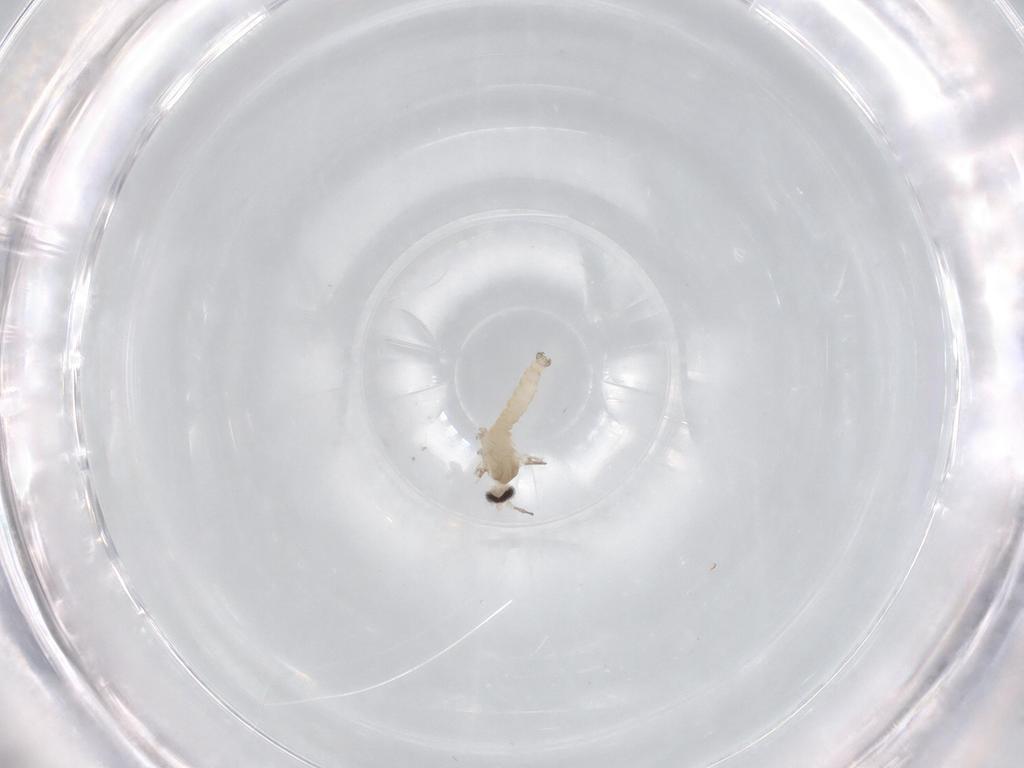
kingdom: Animalia
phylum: Arthropoda
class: Insecta
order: Diptera
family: Cecidomyiidae
